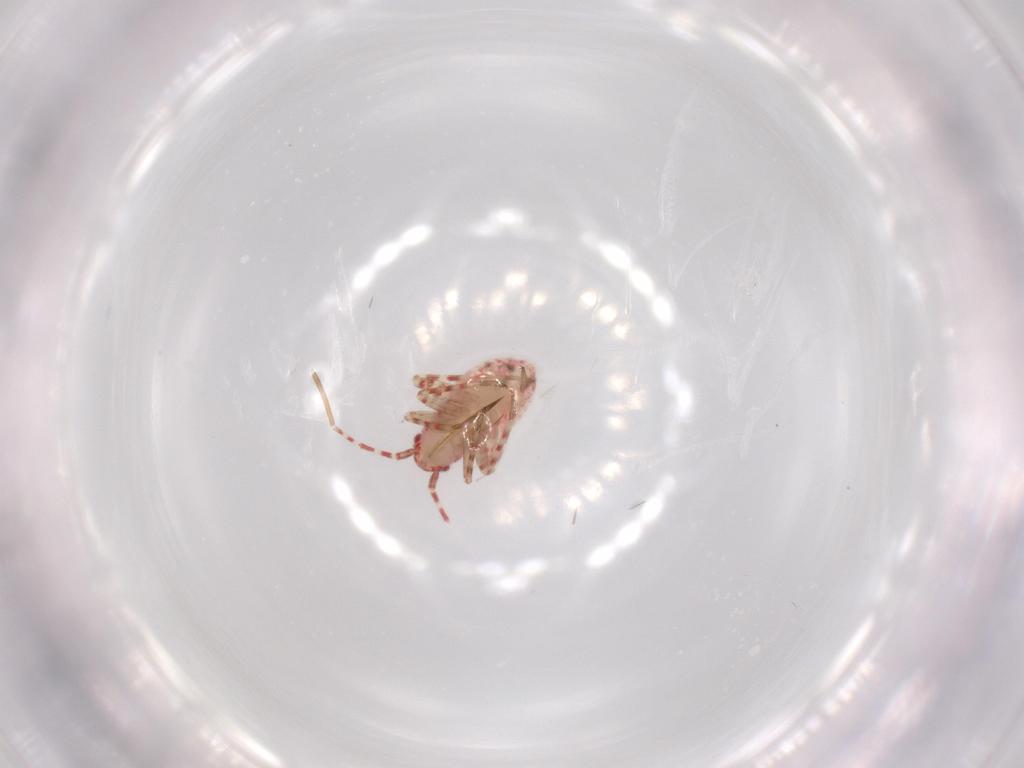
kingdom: Animalia
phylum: Arthropoda
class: Insecta
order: Hemiptera
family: Miridae
